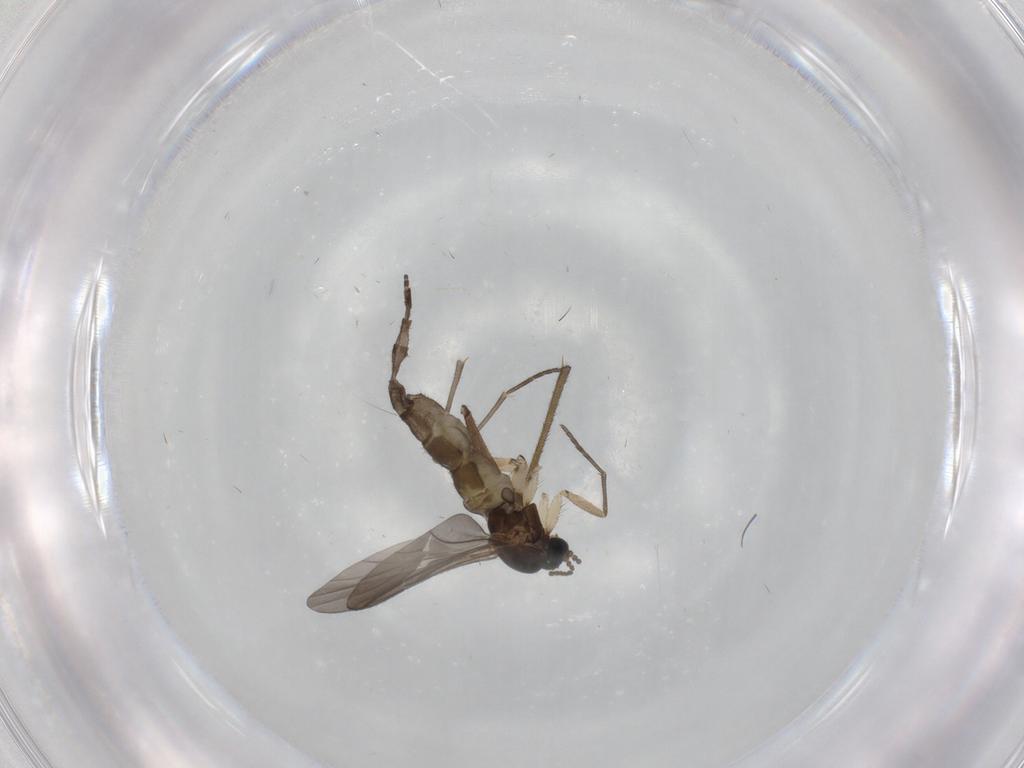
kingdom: Animalia
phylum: Arthropoda
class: Insecta
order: Diptera
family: Sciaridae
